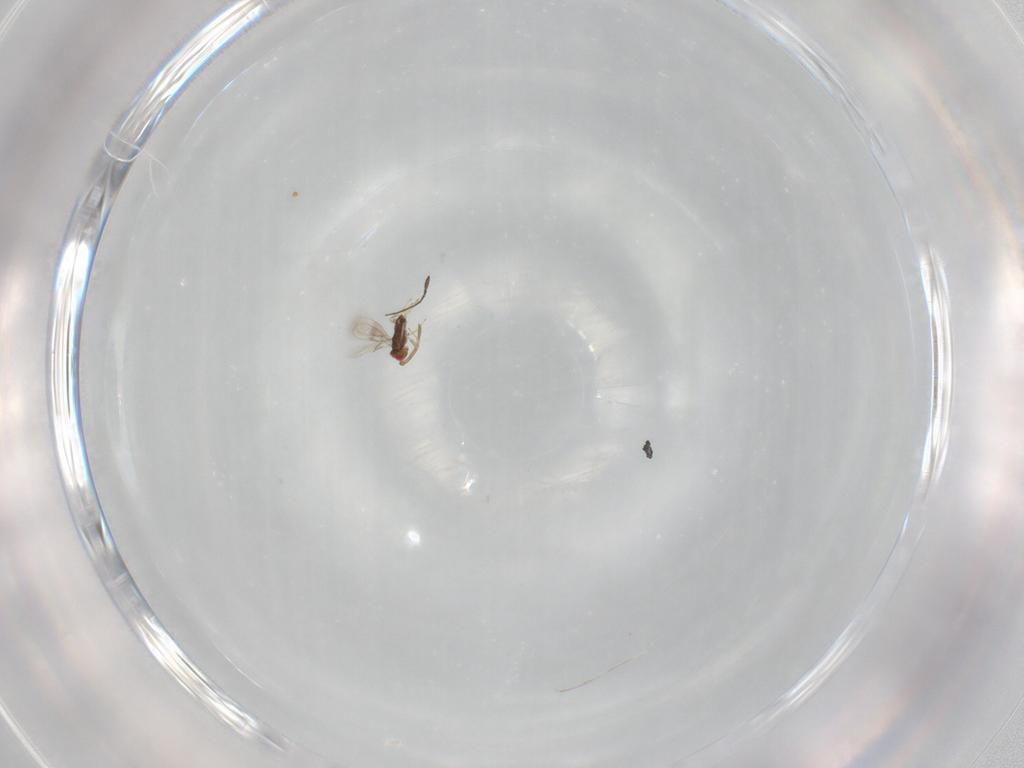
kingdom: Animalia
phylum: Arthropoda
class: Insecta
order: Hymenoptera
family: Mymaridae
